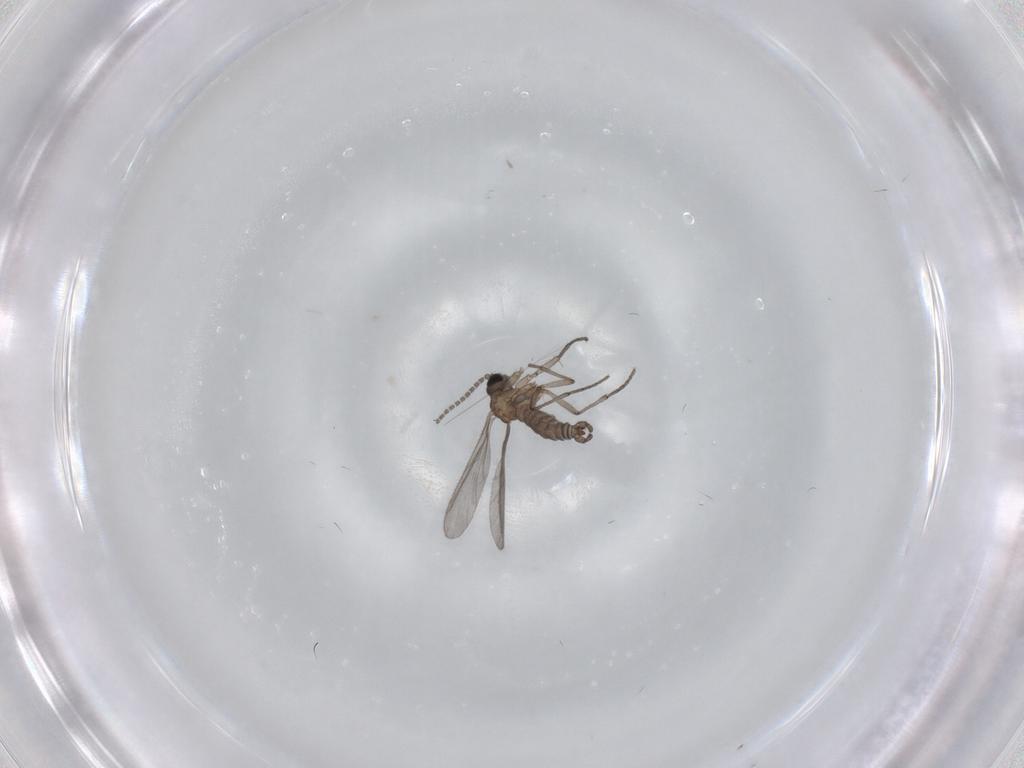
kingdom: Animalia
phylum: Arthropoda
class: Insecta
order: Diptera
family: Sciaridae
